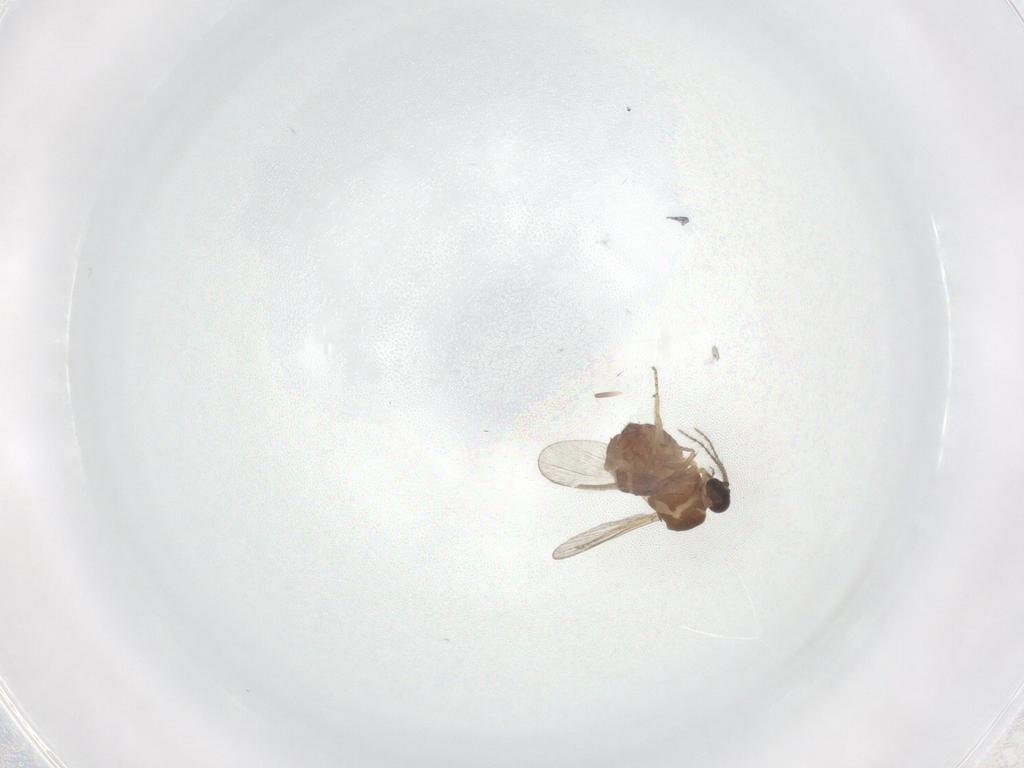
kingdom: Animalia
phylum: Arthropoda
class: Insecta
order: Diptera
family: Ceratopogonidae
